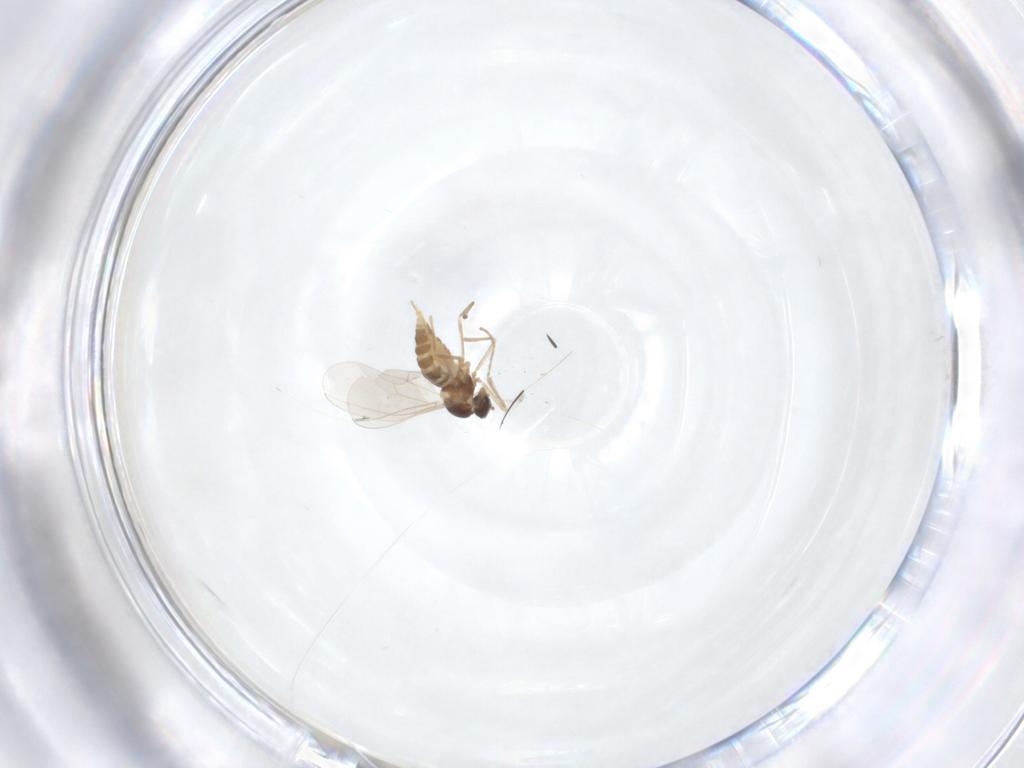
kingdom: Animalia
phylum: Arthropoda
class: Insecta
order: Diptera
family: Cecidomyiidae
